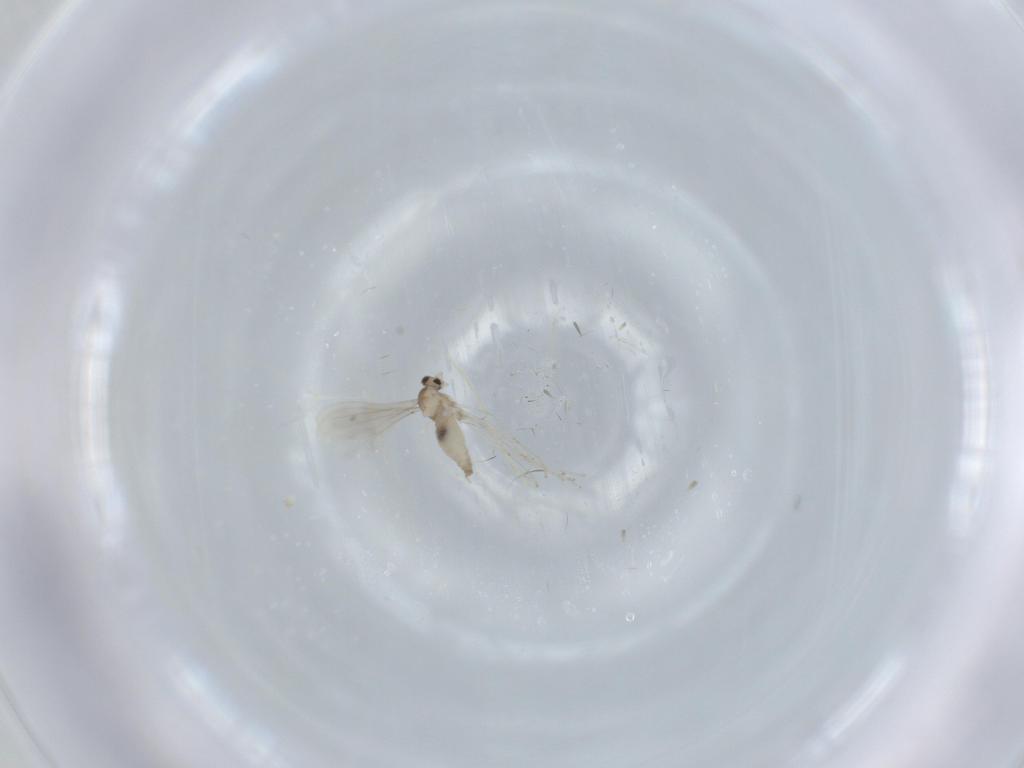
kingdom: Animalia
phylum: Arthropoda
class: Insecta
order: Diptera
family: Cecidomyiidae
